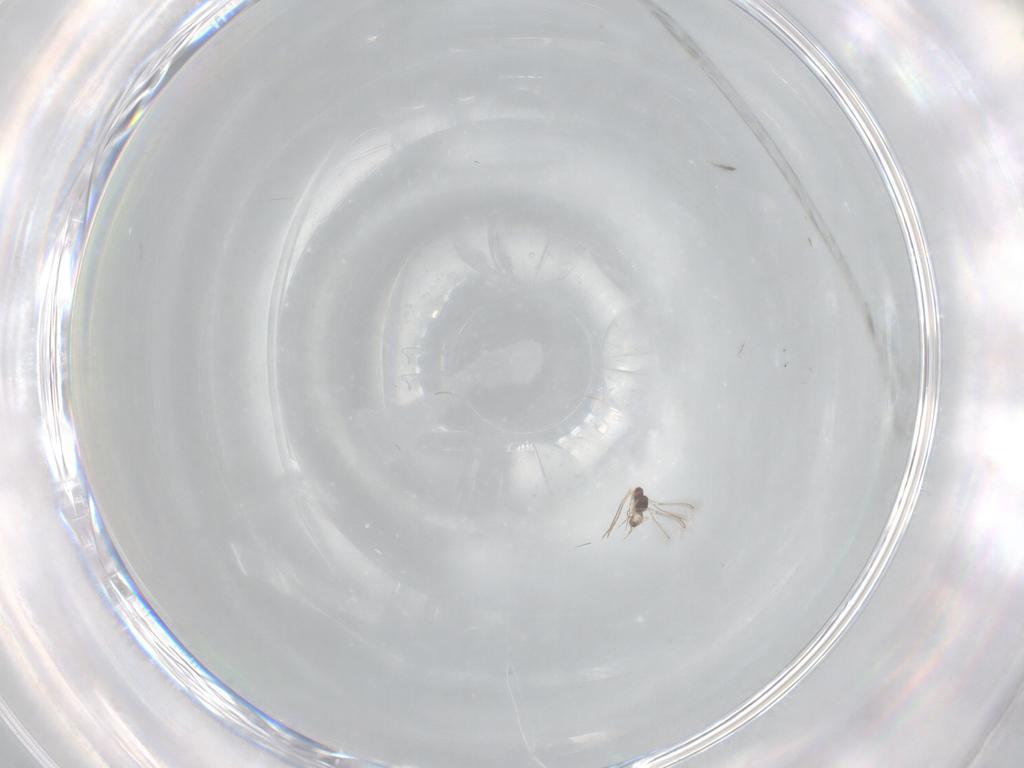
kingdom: Animalia
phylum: Arthropoda
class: Insecta
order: Hymenoptera
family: Mymaridae
